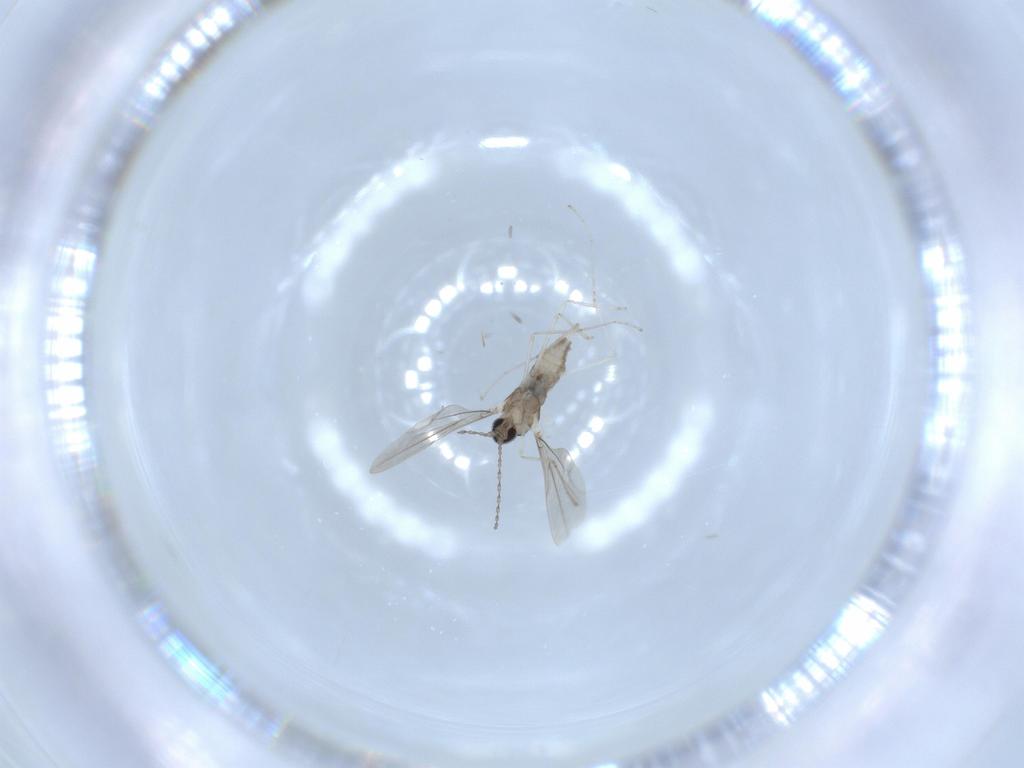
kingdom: Animalia
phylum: Arthropoda
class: Insecta
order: Diptera
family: Cecidomyiidae
